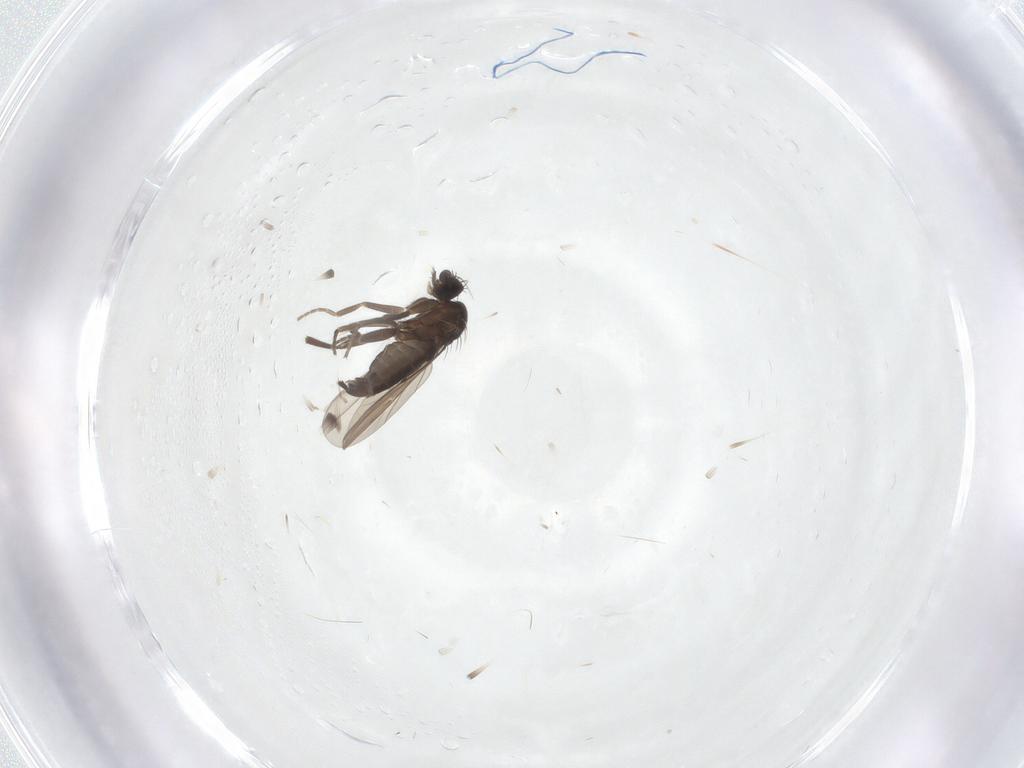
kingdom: Animalia
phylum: Arthropoda
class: Insecta
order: Diptera
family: Phoridae
